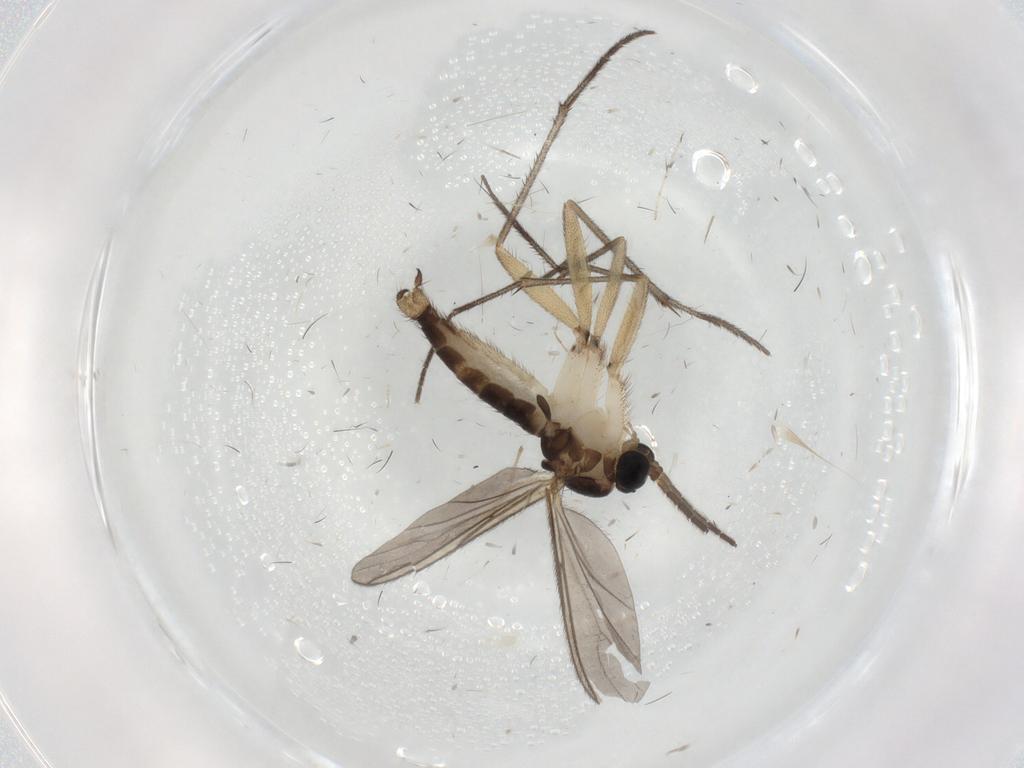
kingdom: Animalia
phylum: Arthropoda
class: Insecta
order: Diptera
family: Sciaridae
